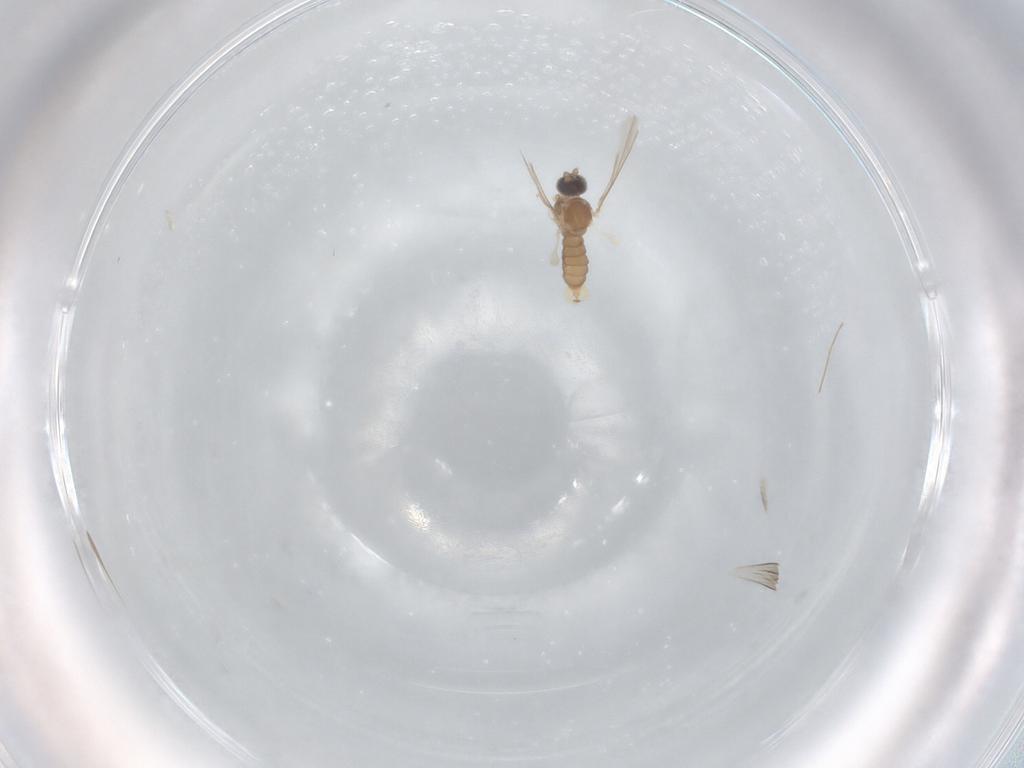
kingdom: Animalia
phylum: Arthropoda
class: Insecta
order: Diptera
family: Cecidomyiidae
